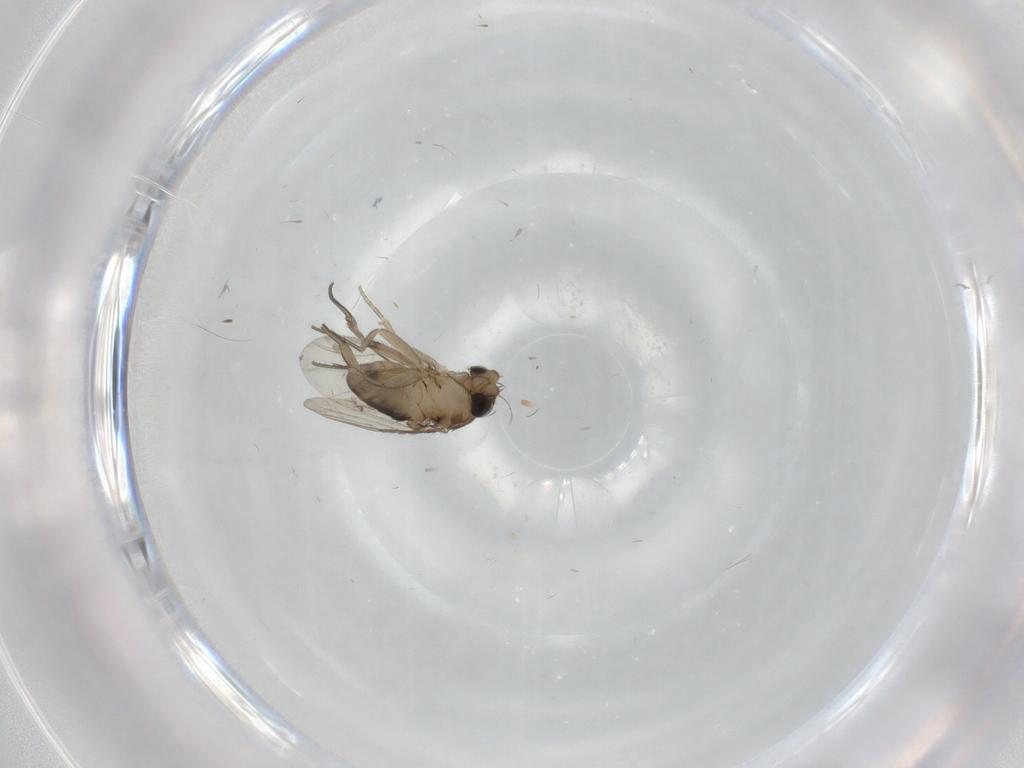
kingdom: Animalia
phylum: Arthropoda
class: Insecta
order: Diptera
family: Phoridae
